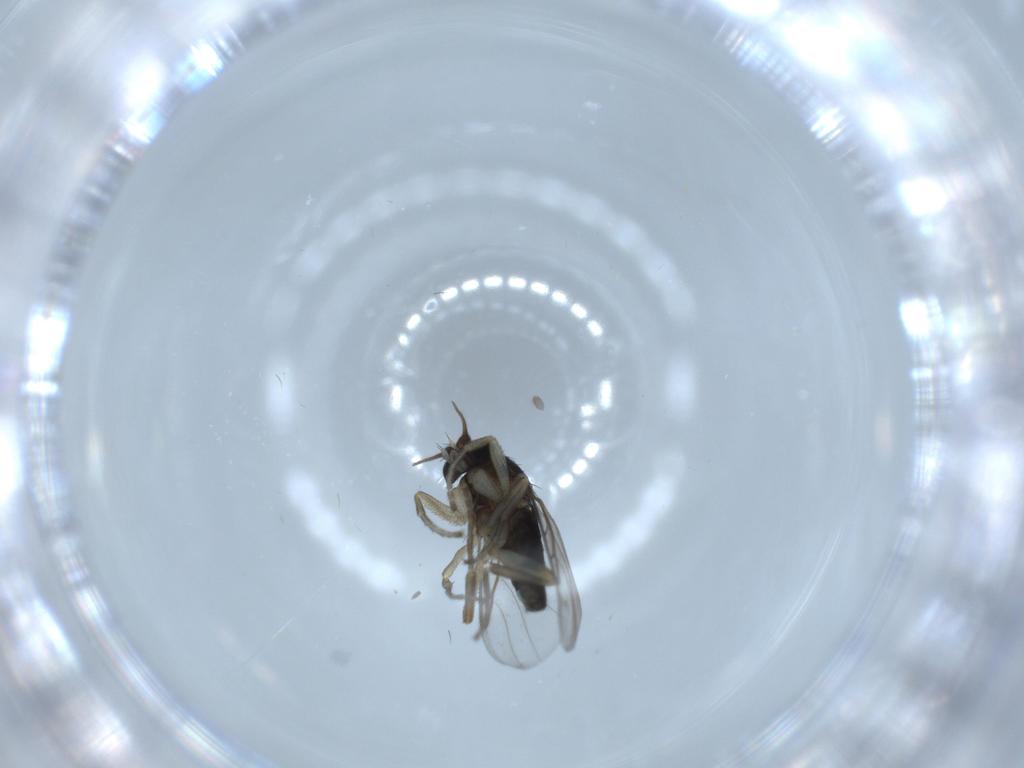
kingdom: Animalia
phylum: Arthropoda
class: Insecta
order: Diptera
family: Phoridae
